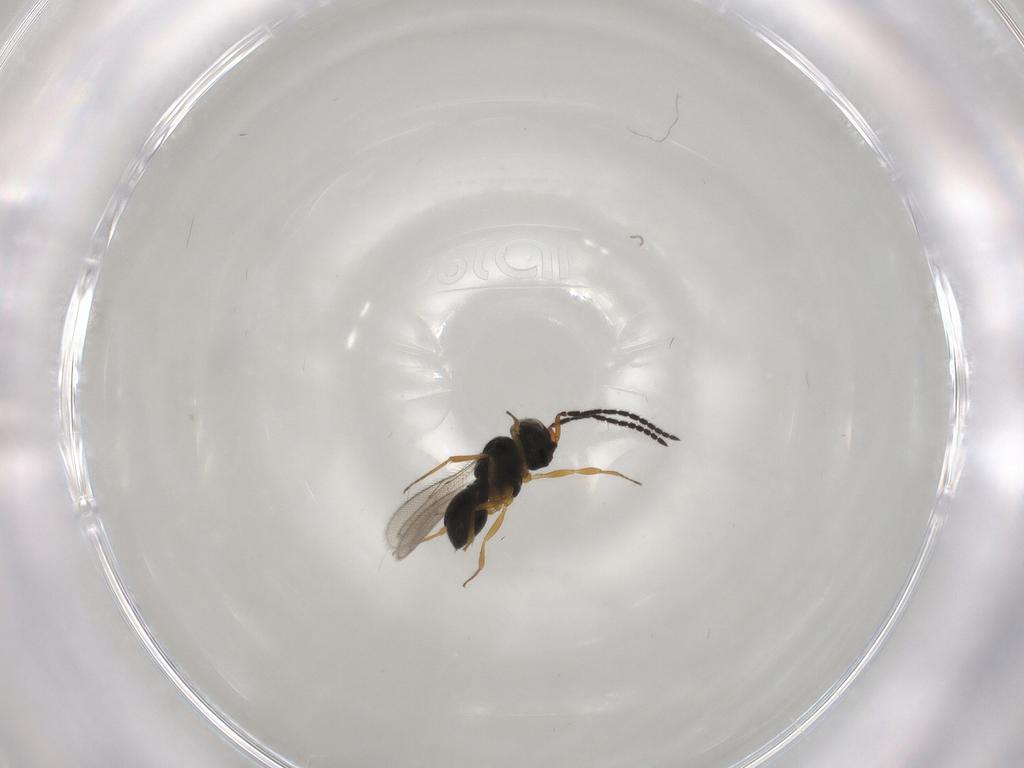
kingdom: Animalia
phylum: Arthropoda
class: Insecta
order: Hymenoptera
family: Scelionidae
